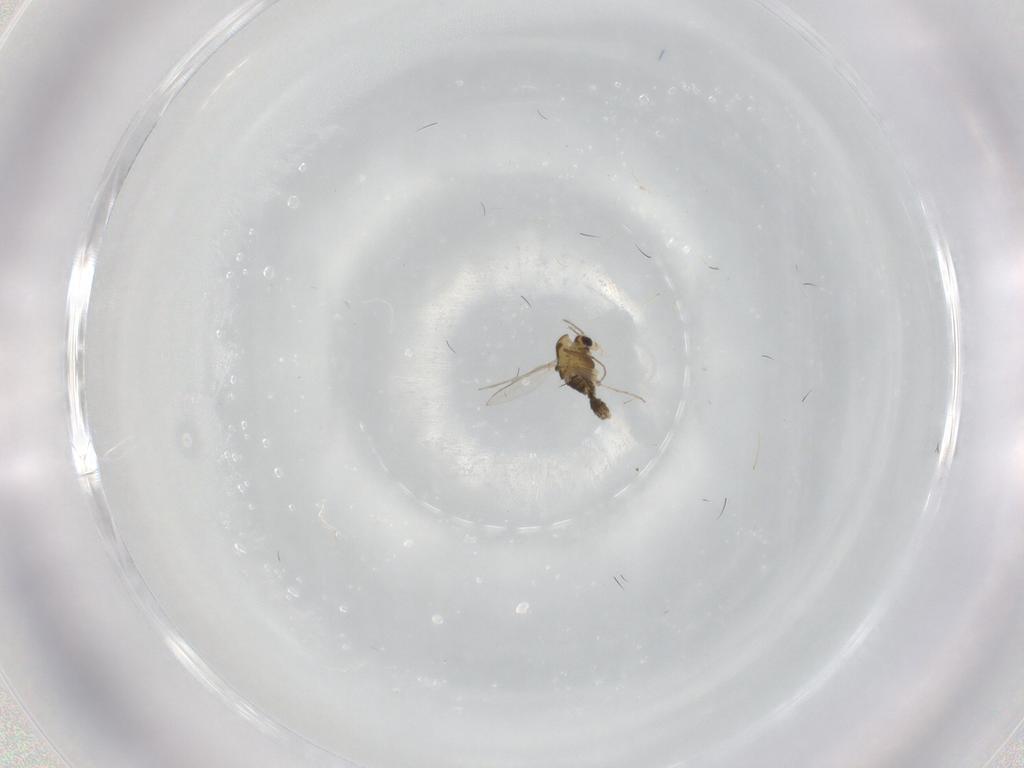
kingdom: Animalia
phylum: Arthropoda
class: Insecta
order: Diptera
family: Chironomidae
